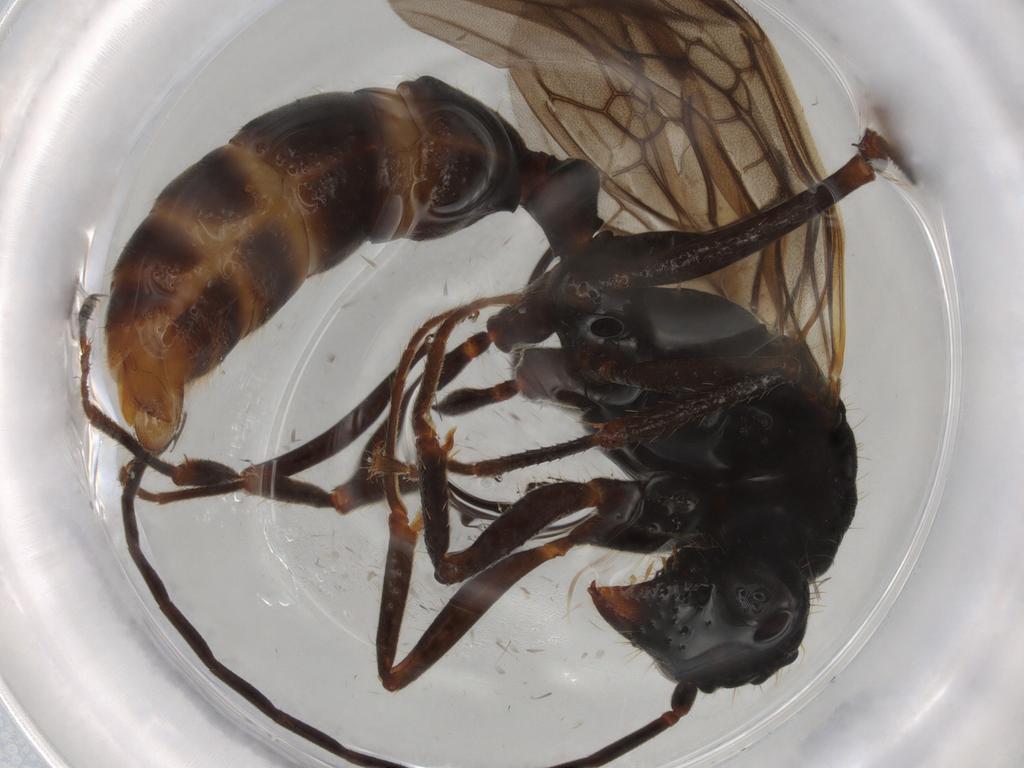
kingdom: Animalia
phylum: Arthropoda
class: Insecta
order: Hymenoptera
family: Formicidae
